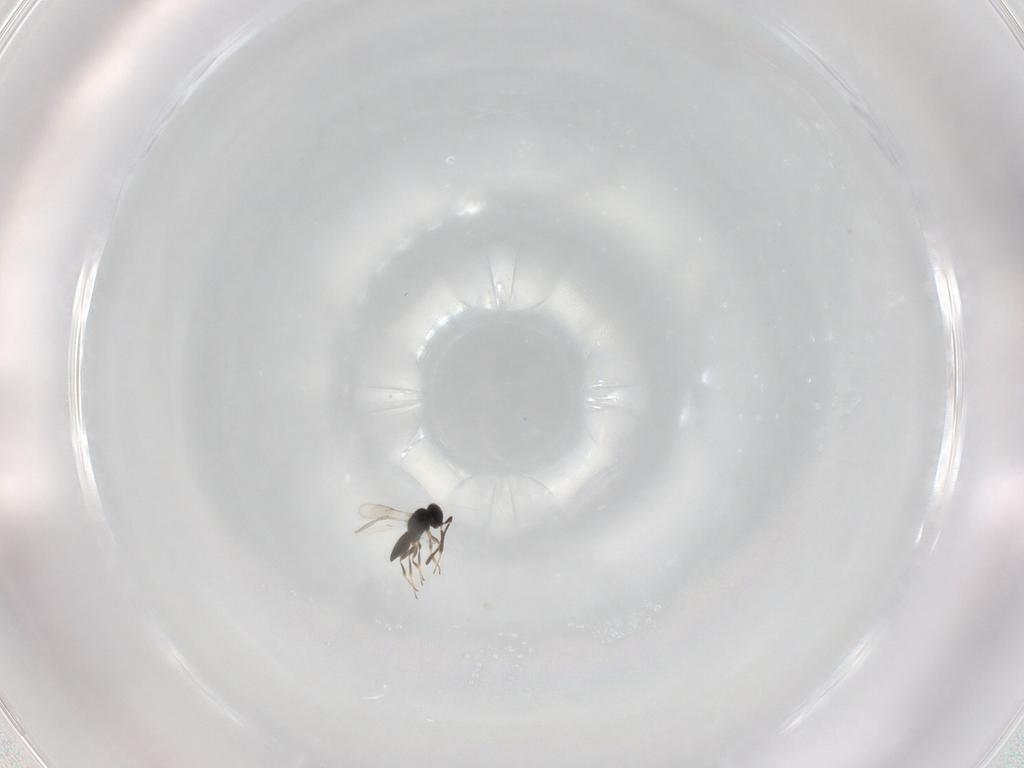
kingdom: Animalia
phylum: Arthropoda
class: Insecta
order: Hymenoptera
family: Scelionidae
